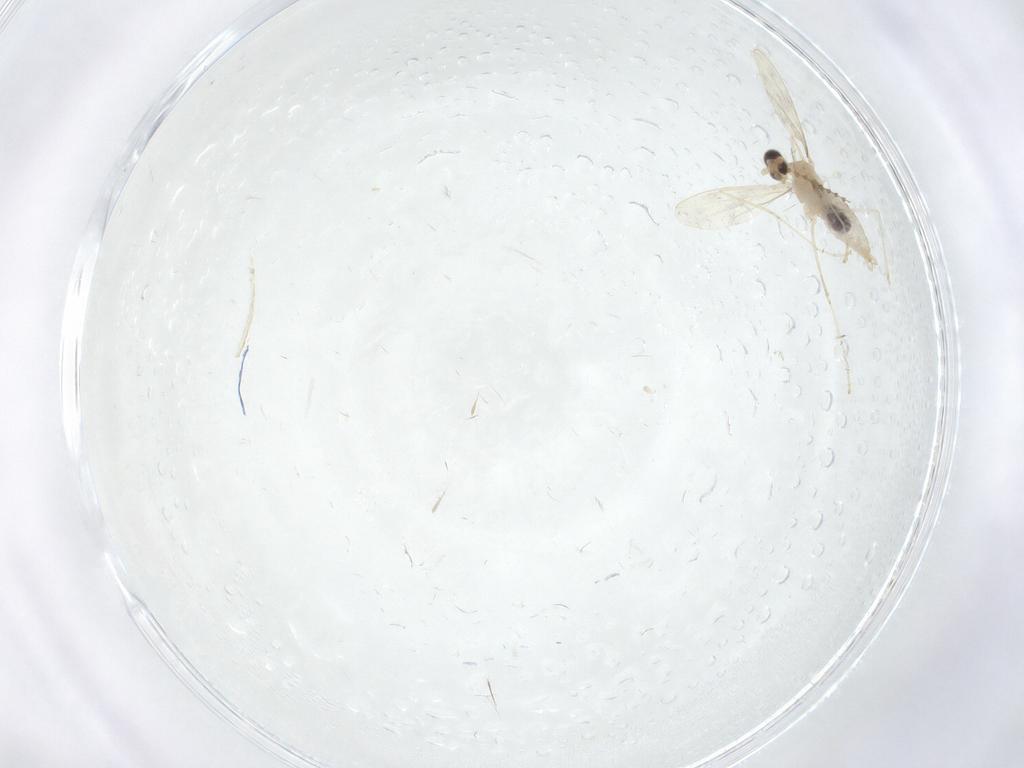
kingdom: Animalia
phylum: Arthropoda
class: Insecta
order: Diptera
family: Cecidomyiidae
